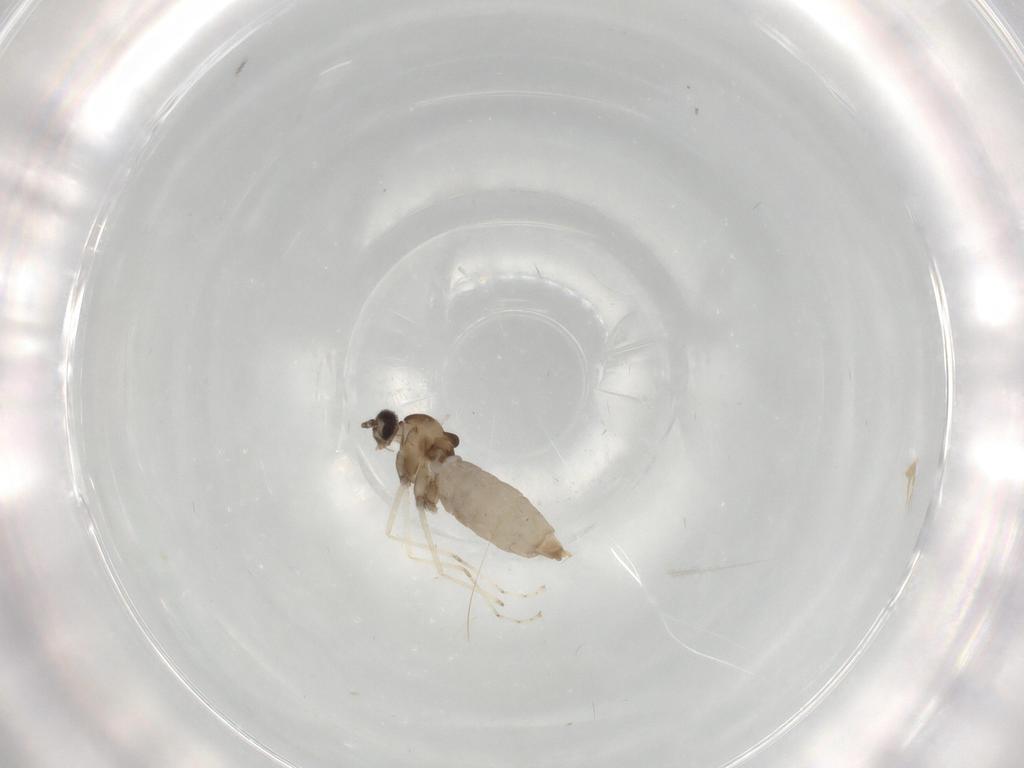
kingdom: Animalia
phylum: Arthropoda
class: Insecta
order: Diptera
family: Cecidomyiidae
